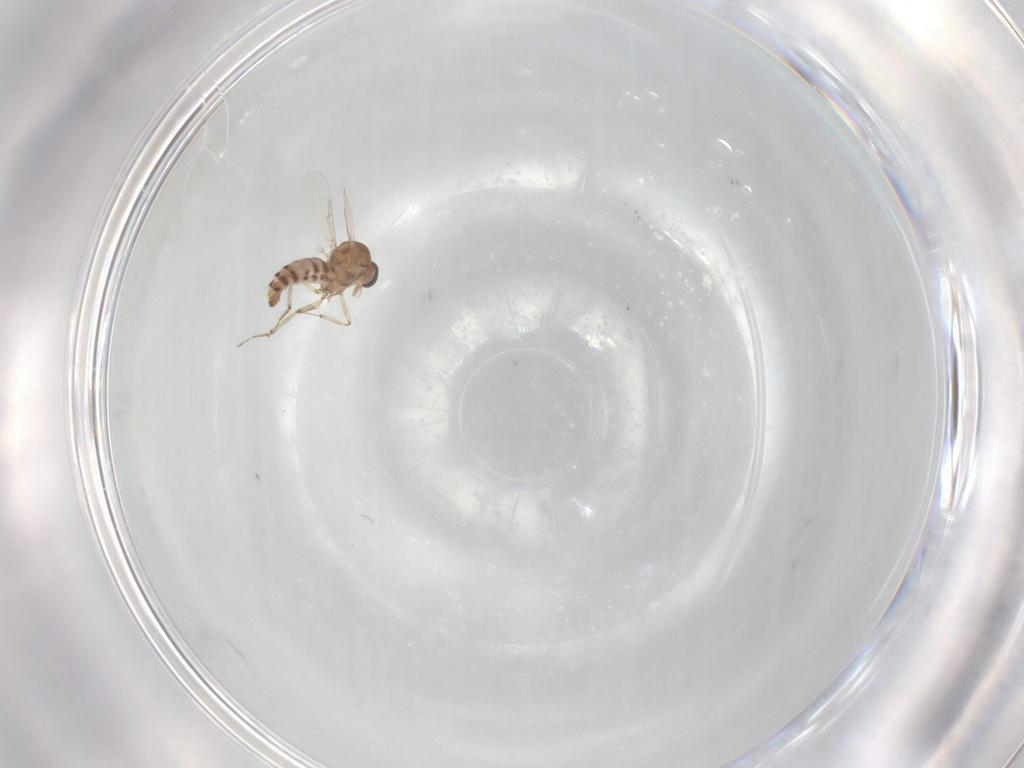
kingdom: Animalia
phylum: Arthropoda
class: Insecta
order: Diptera
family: Ceratopogonidae
